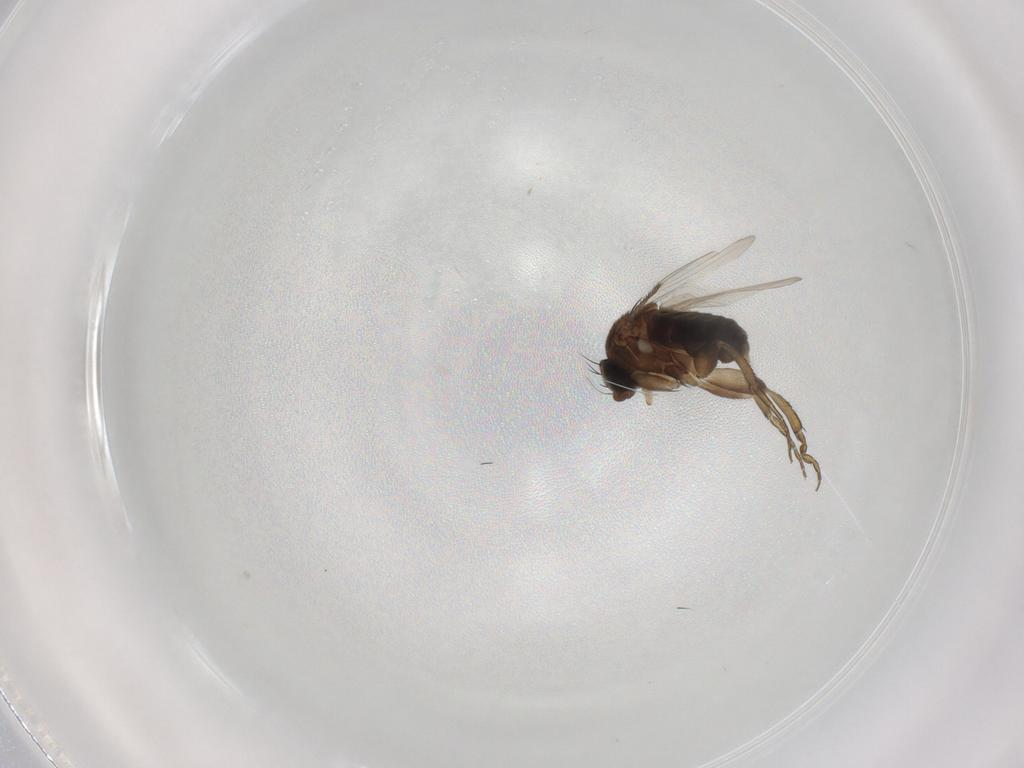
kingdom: Animalia
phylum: Arthropoda
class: Insecta
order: Diptera
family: Phoridae
